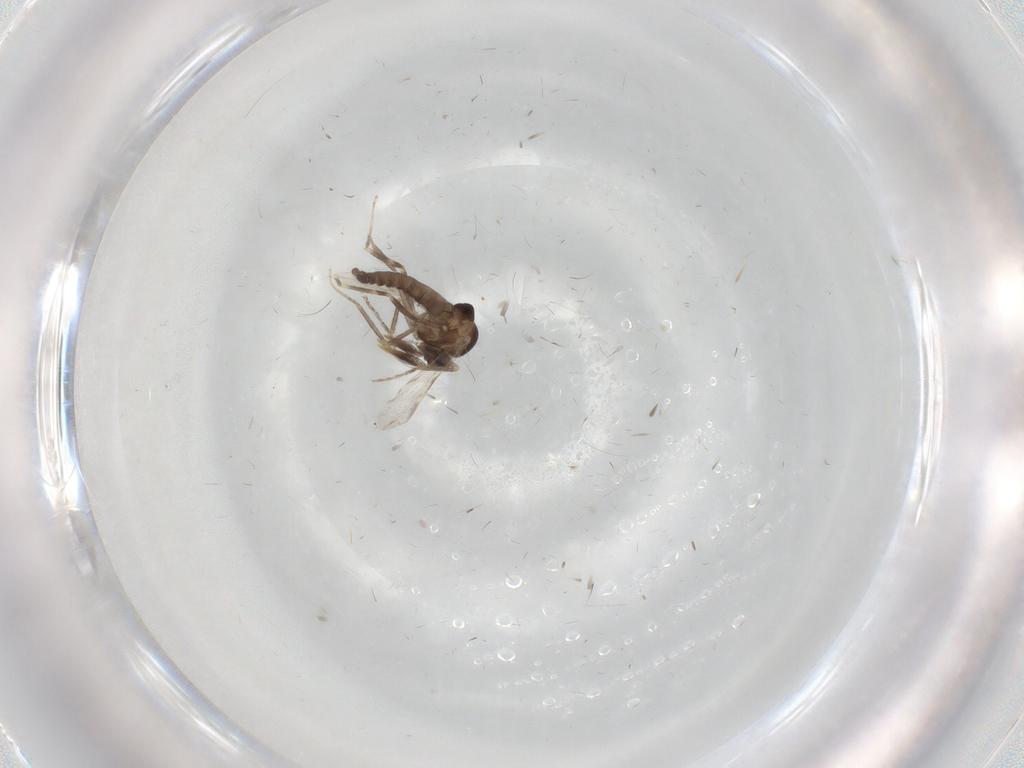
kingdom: Animalia
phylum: Arthropoda
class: Insecta
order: Diptera
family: Ceratopogonidae
